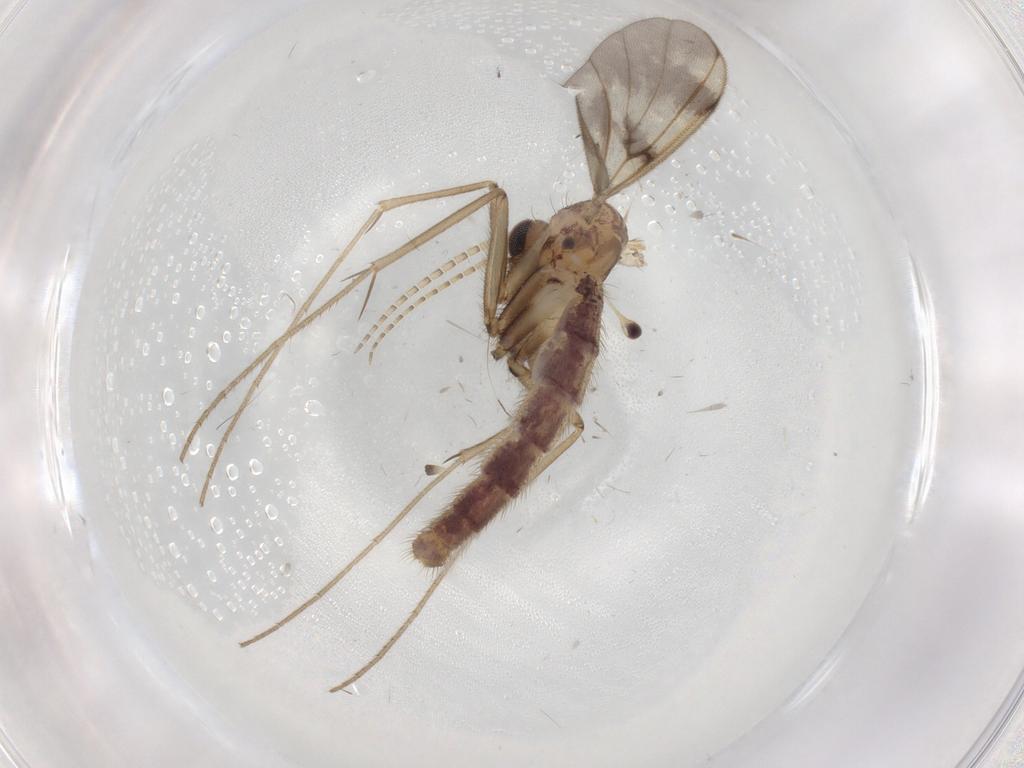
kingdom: Animalia
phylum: Arthropoda
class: Insecta
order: Diptera
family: Sciaridae
